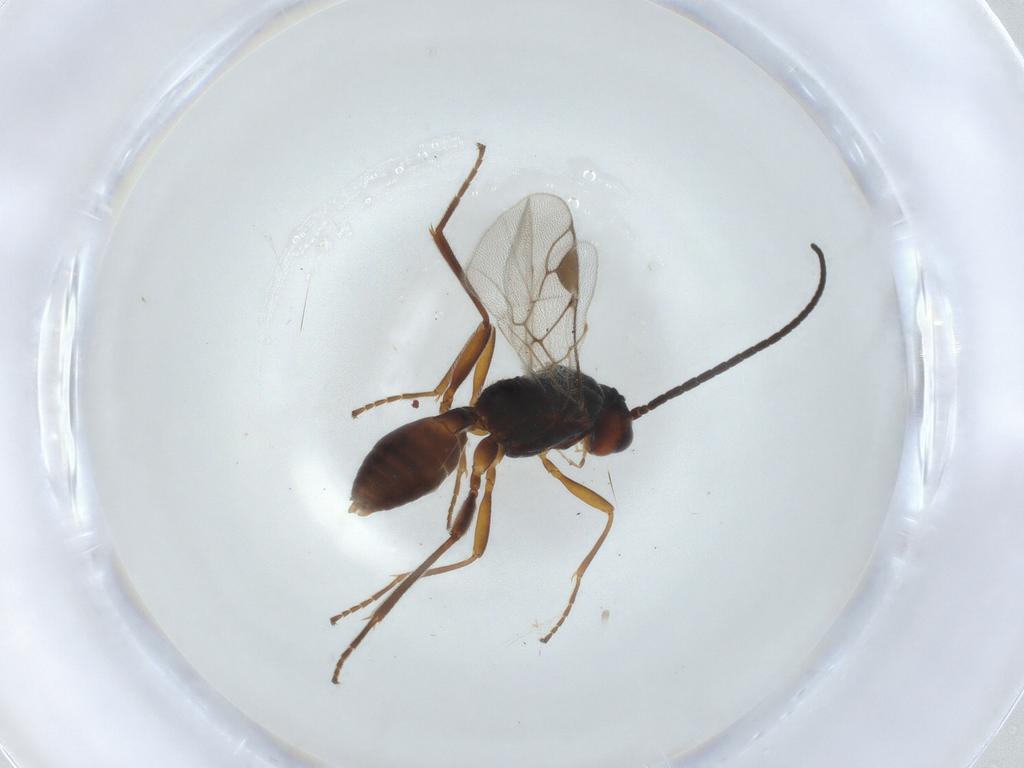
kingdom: Animalia
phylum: Arthropoda
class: Insecta
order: Hymenoptera
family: Braconidae
